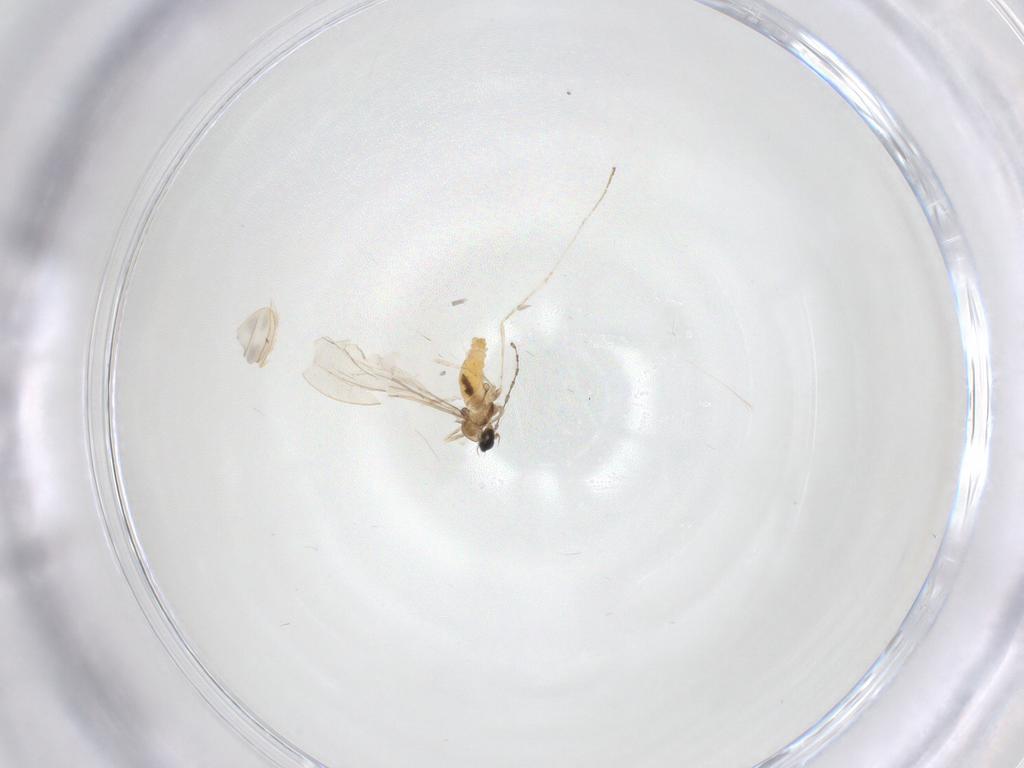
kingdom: Animalia
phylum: Arthropoda
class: Insecta
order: Diptera
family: Cecidomyiidae
